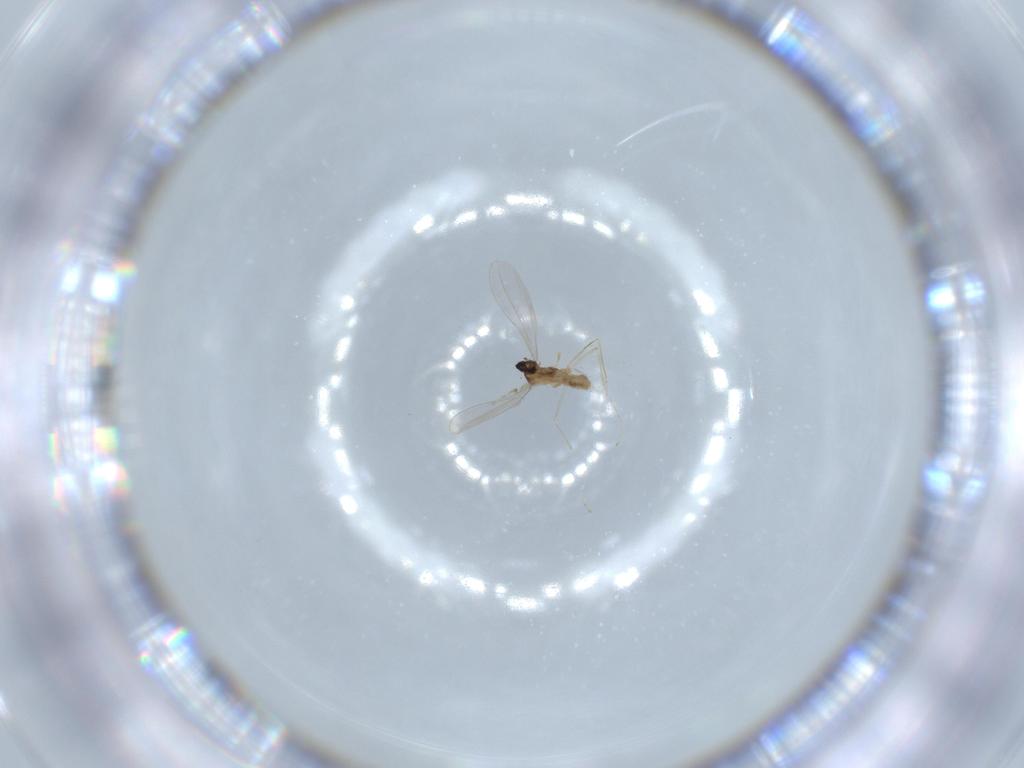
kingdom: Animalia
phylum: Arthropoda
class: Insecta
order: Diptera
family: Cecidomyiidae
